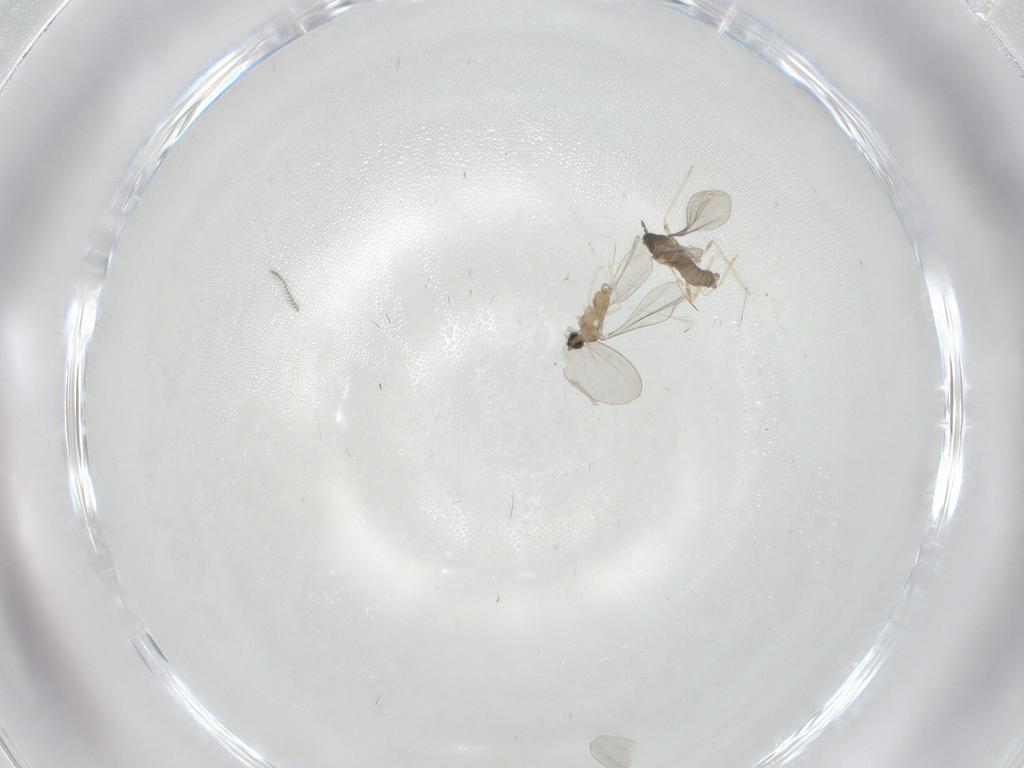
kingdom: Animalia
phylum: Arthropoda
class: Insecta
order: Diptera
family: Cecidomyiidae
